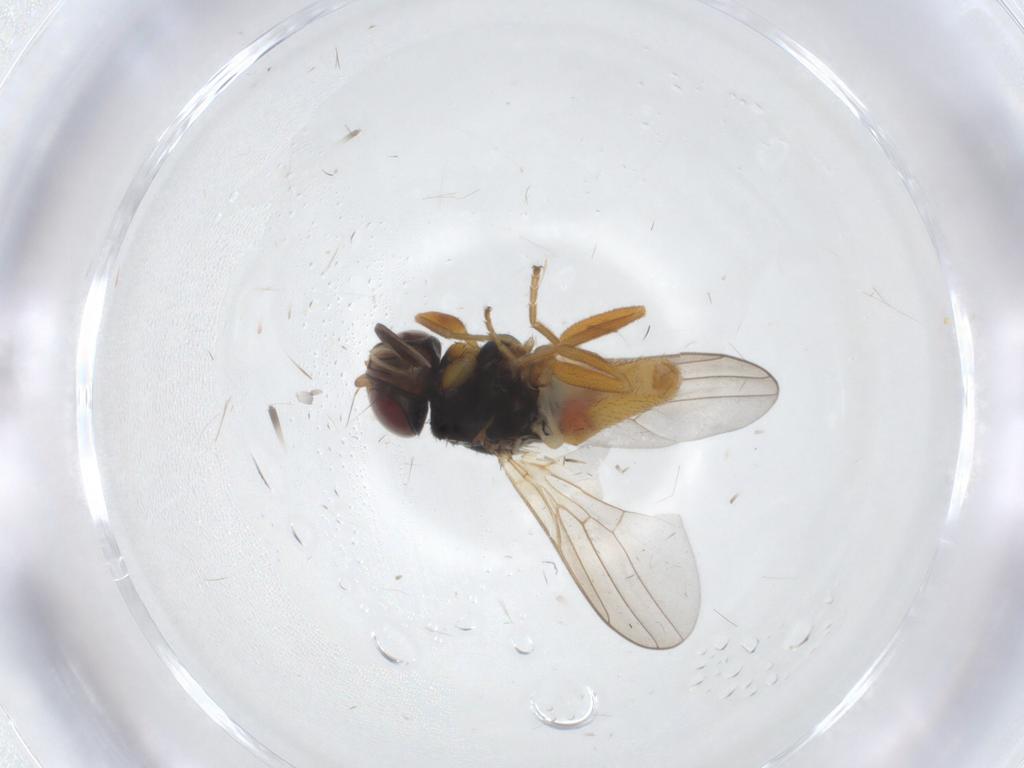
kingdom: Animalia
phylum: Arthropoda
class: Insecta
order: Diptera
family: Chloropidae
